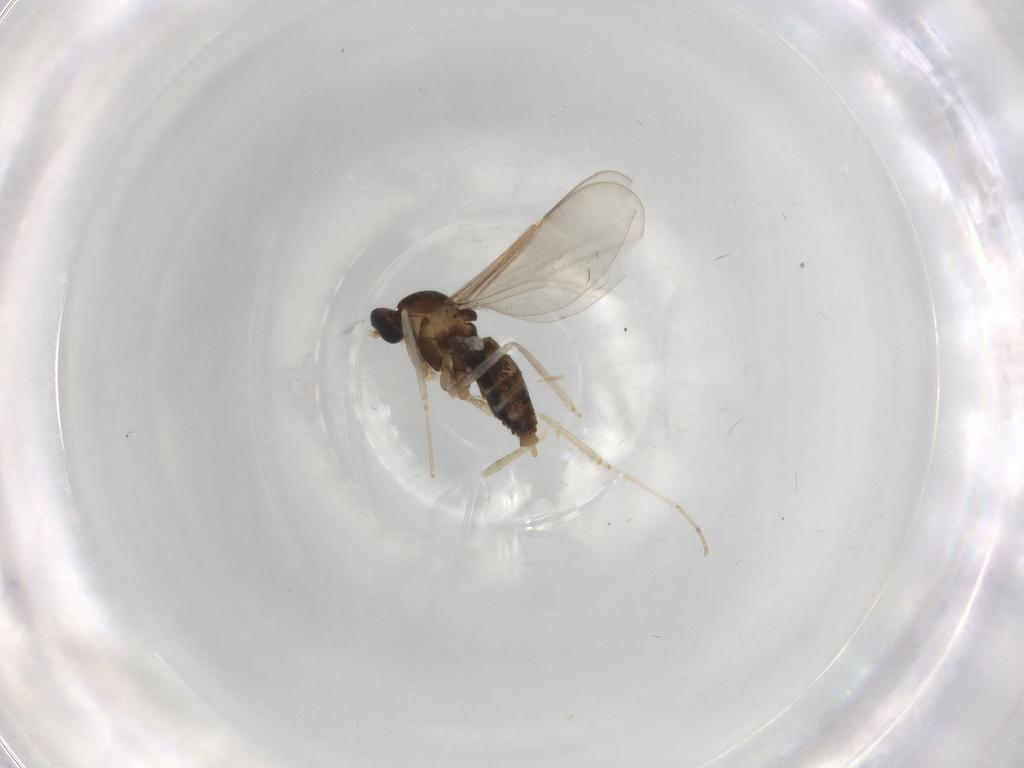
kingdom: Animalia
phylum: Arthropoda
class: Insecta
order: Diptera
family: Cecidomyiidae
